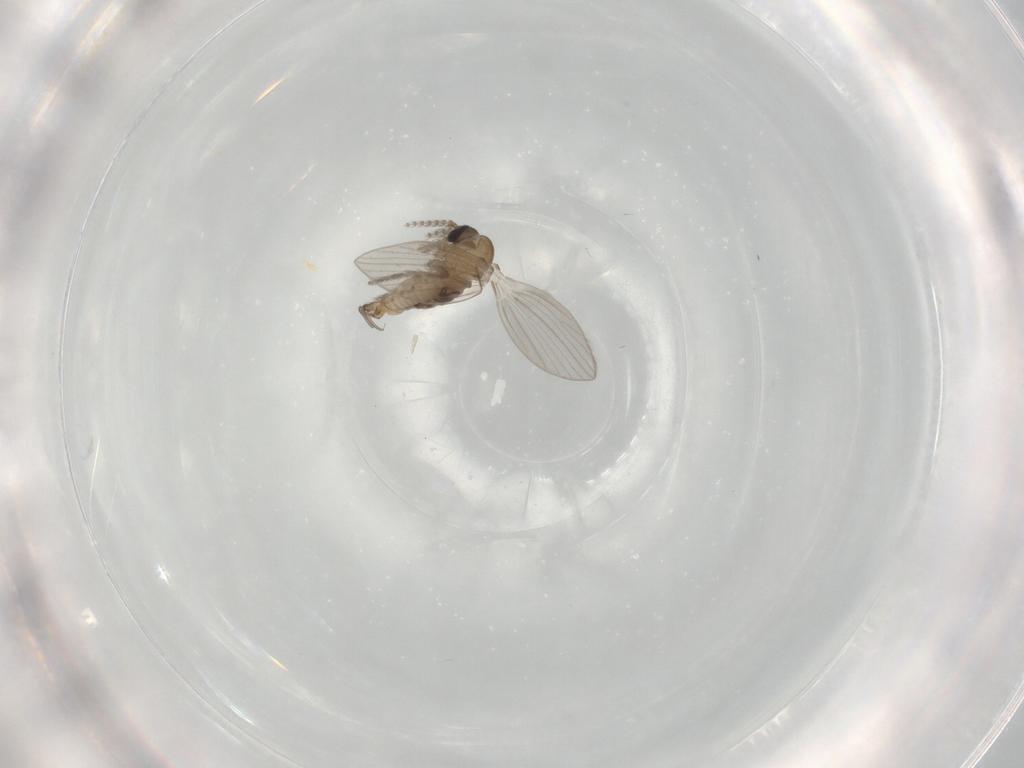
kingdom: Animalia
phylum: Arthropoda
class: Insecta
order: Diptera
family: Psychodidae
